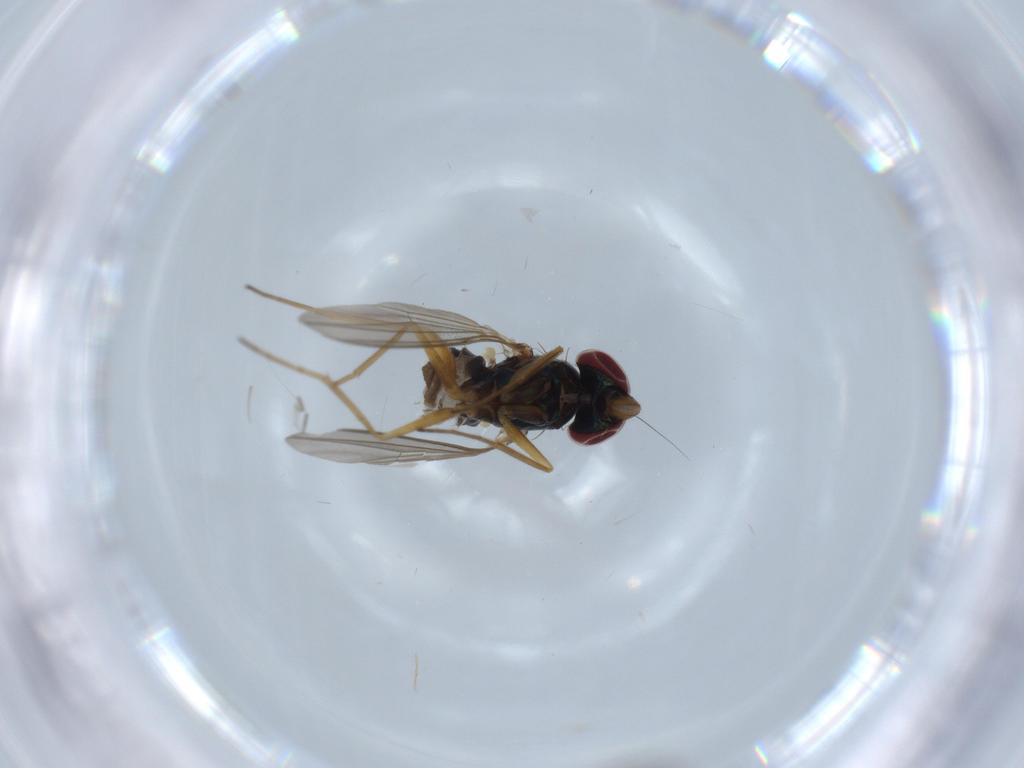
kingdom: Animalia
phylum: Arthropoda
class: Insecta
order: Diptera
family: Dolichopodidae
